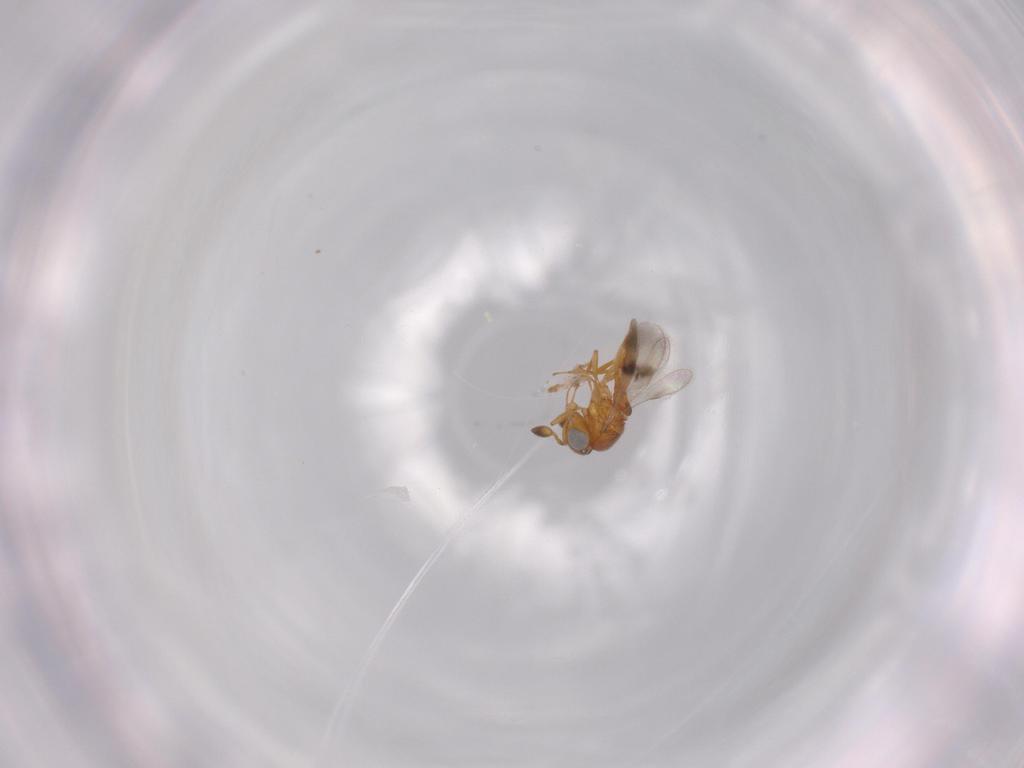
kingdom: Animalia
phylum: Arthropoda
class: Insecta
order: Hymenoptera
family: Scelionidae
